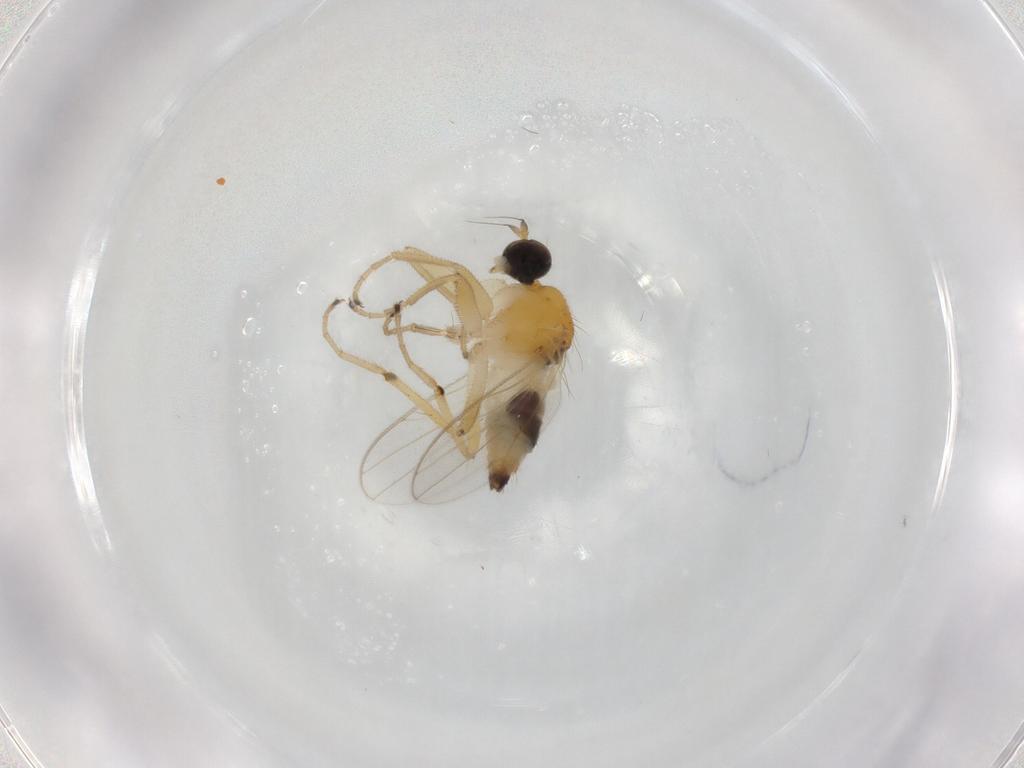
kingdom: Animalia
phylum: Arthropoda
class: Insecta
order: Diptera
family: Hybotidae
